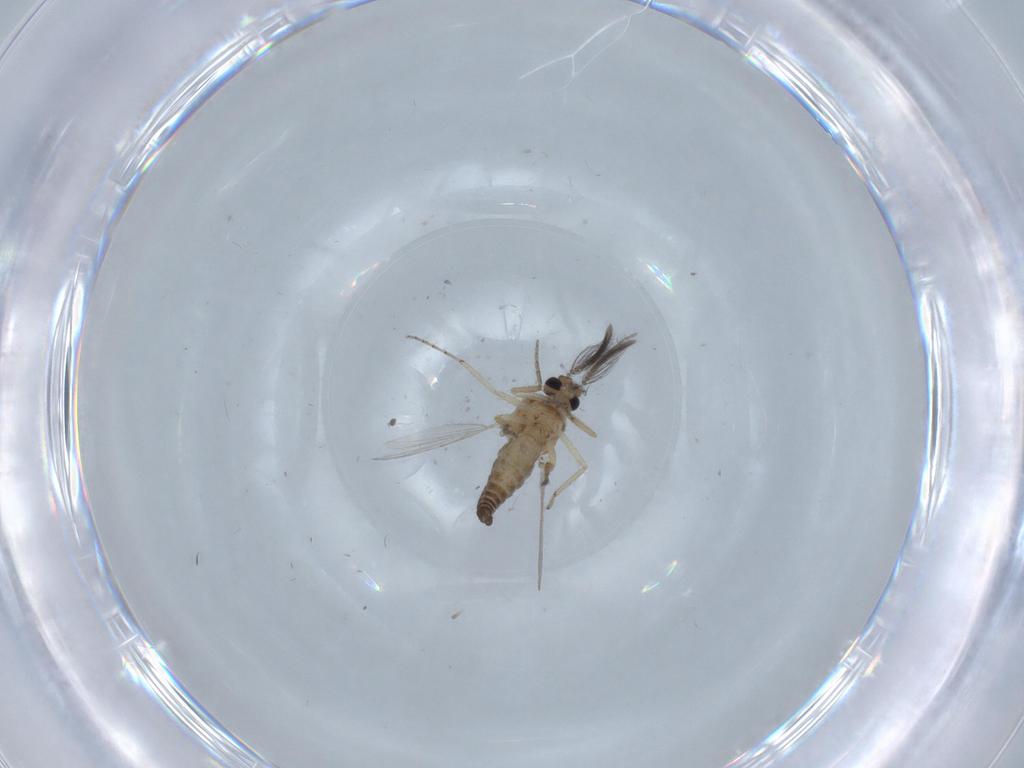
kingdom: Animalia
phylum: Arthropoda
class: Insecta
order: Diptera
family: Ceratopogonidae
